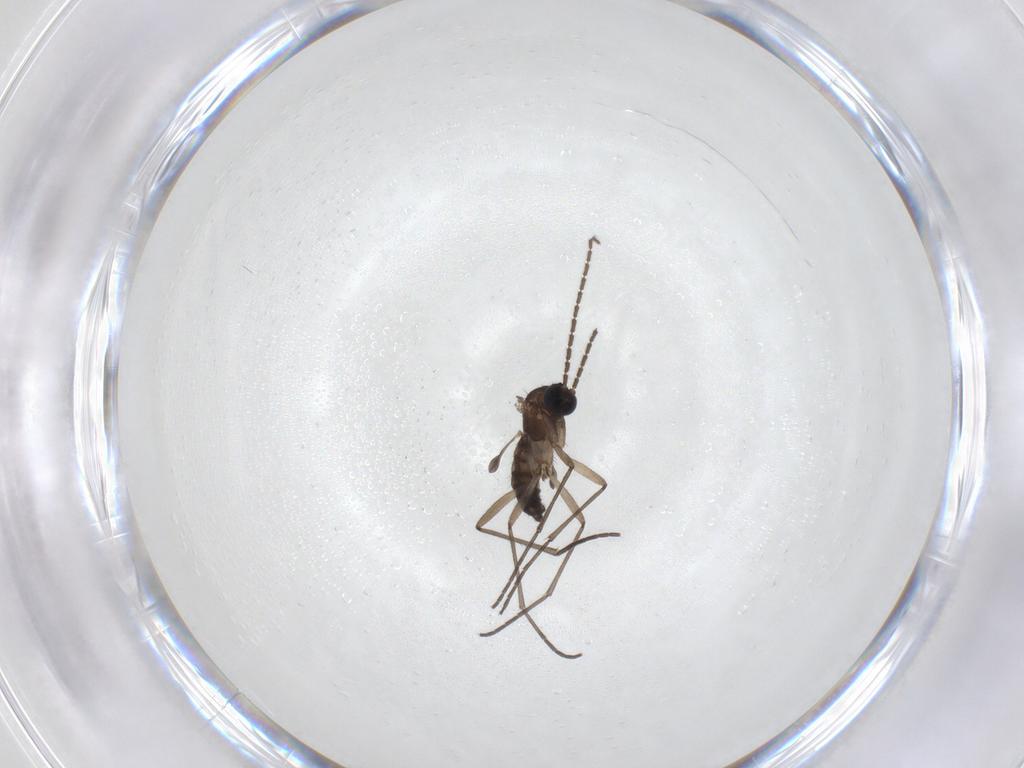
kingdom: Animalia
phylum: Arthropoda
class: Insecta
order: Diptera
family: Sciaridae
